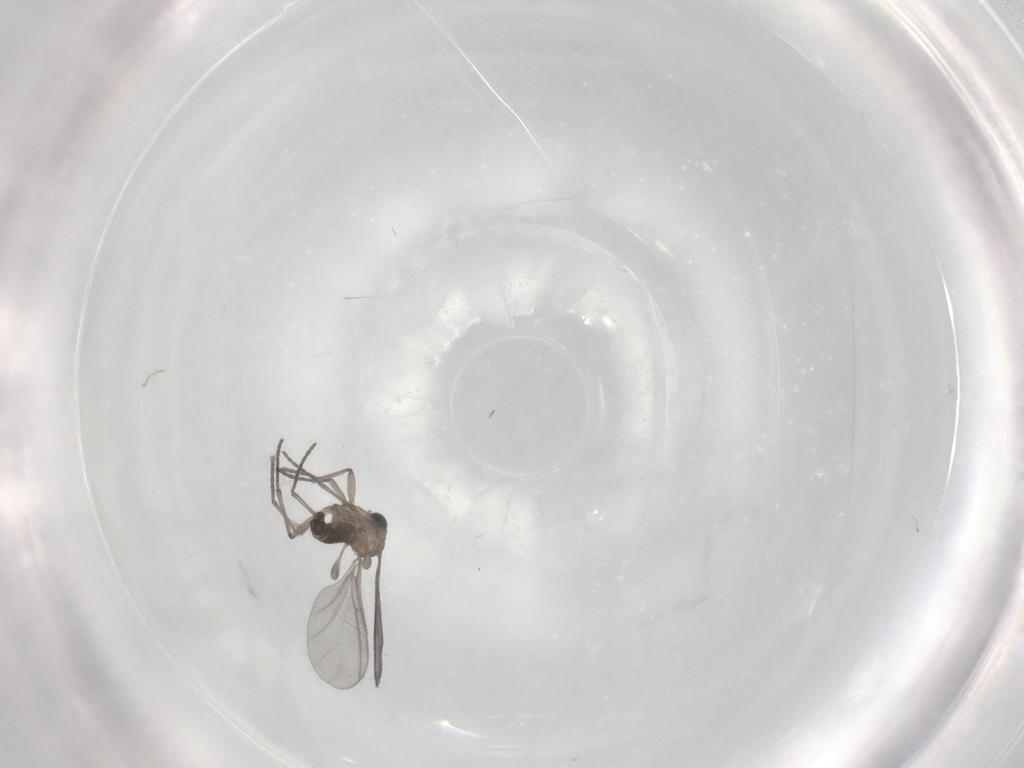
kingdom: Animalia
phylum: Arthropoda
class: Insecta
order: Diptera
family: Sciaridae
